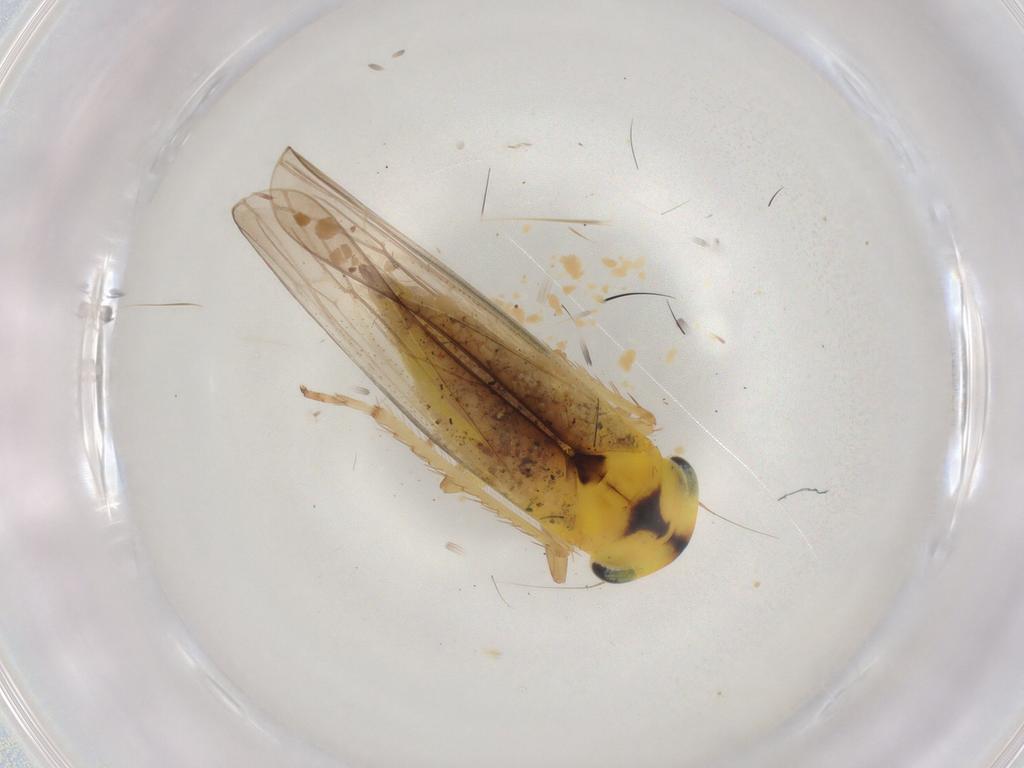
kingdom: Animalia
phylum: Arthropoda
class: Insecta
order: Hymenoptera
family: Formicidae
